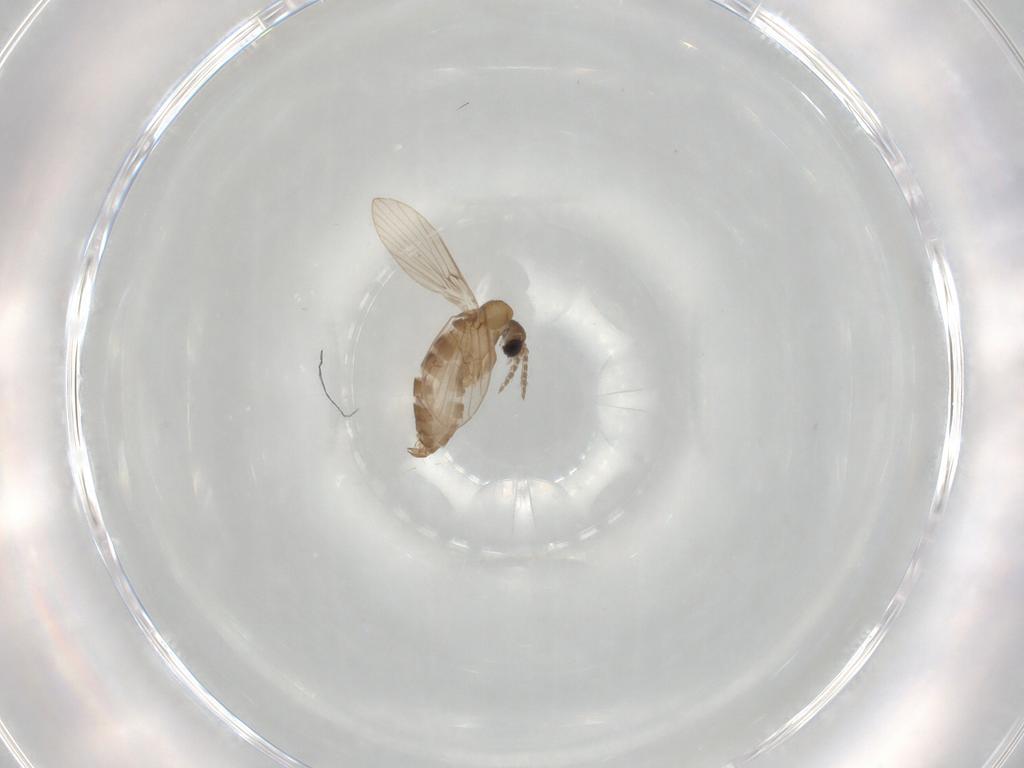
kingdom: Animalia
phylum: Arthropoda
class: Insecta
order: Diptera
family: Psychodidae
